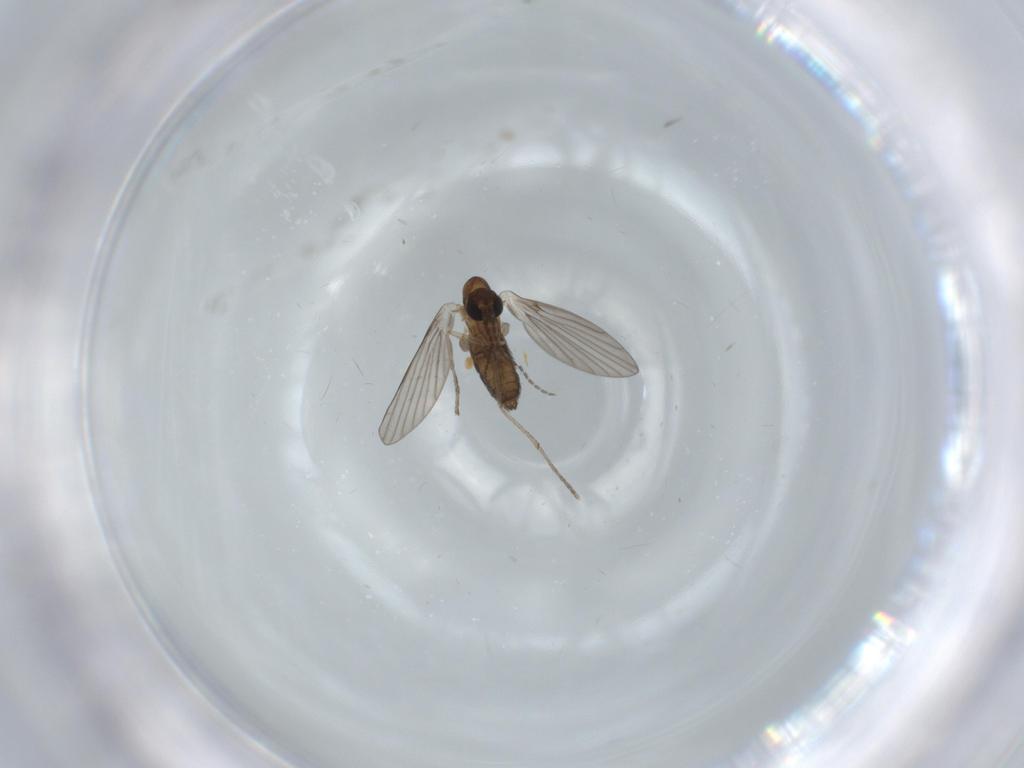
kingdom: Animalia
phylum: Arthropoda
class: Insecta
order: Diptera
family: Psychodidae
